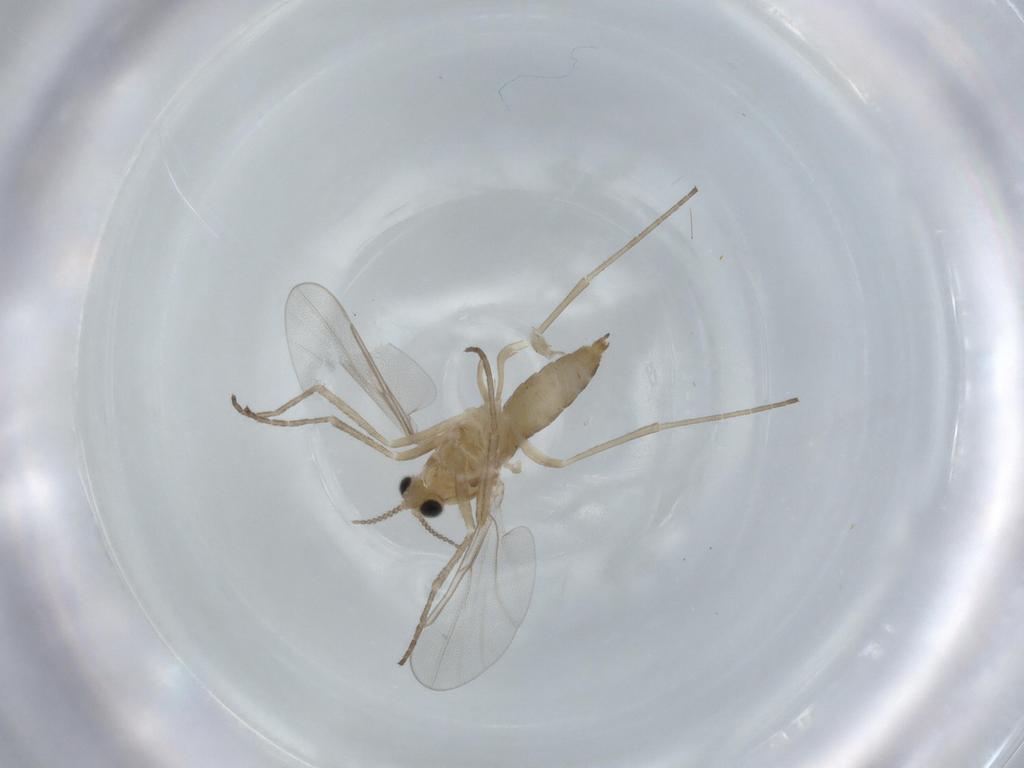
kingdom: Animalia
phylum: Arthropoda
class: Insecta
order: Diptera
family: Cecidomyiidae
